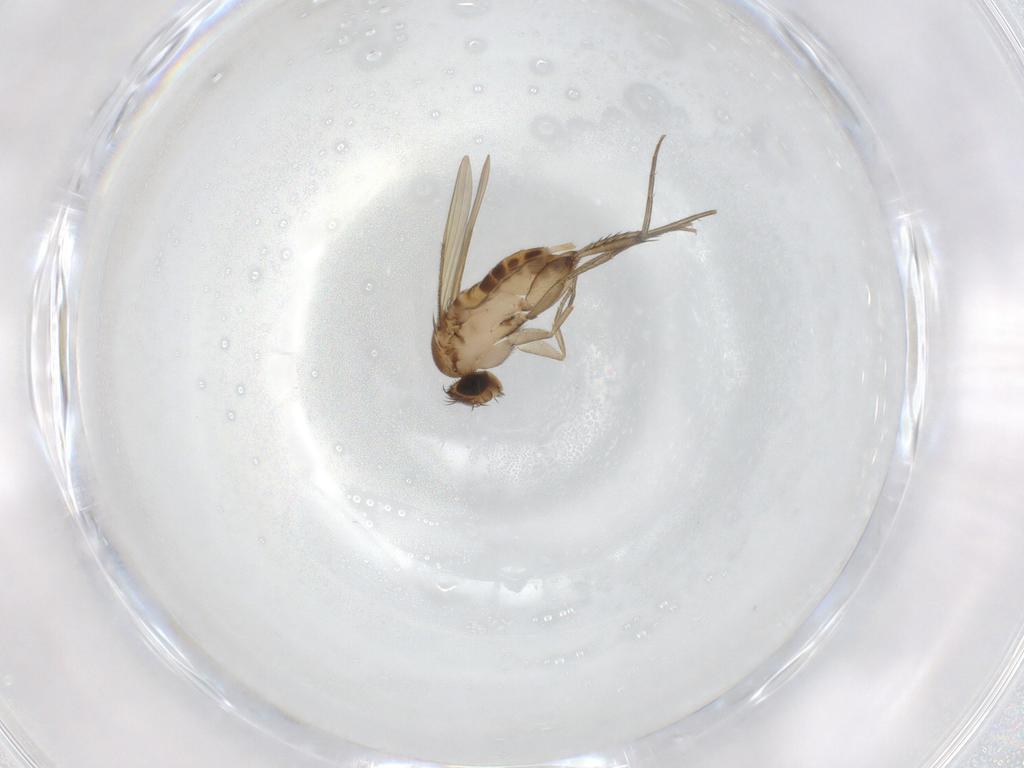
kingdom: Animalia
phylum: Arthropoda
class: Insecta
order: Diptera
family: Phoridae
